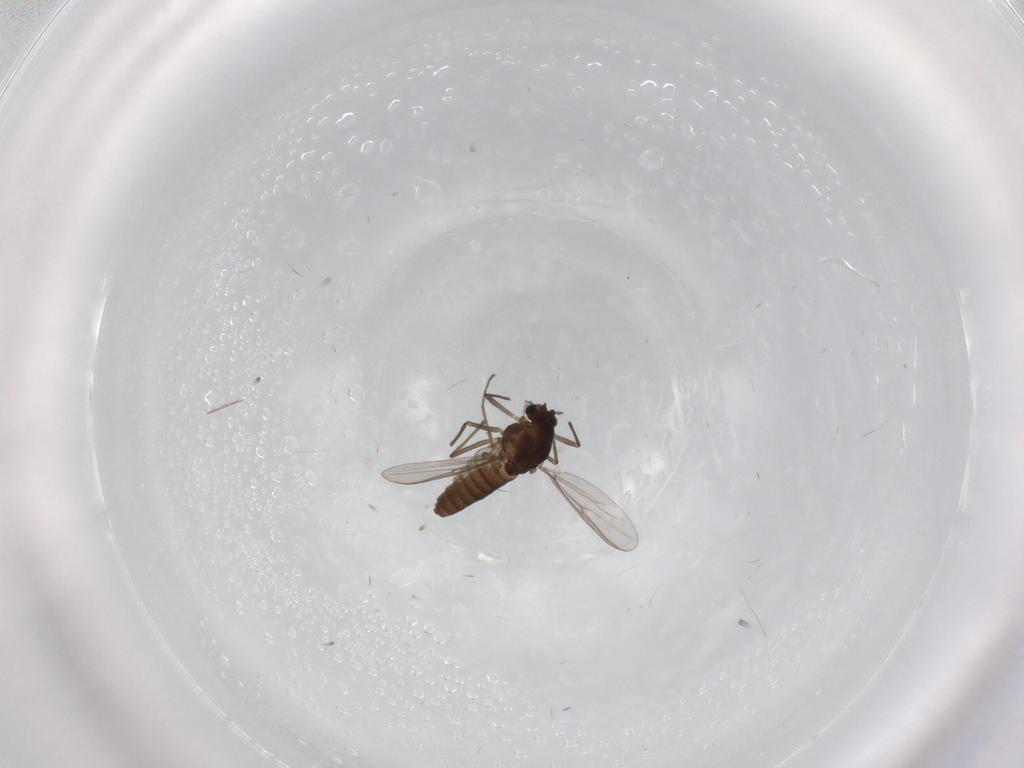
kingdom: Animalia
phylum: Arthropoda
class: Insecta
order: Diptera
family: Chironomidae
